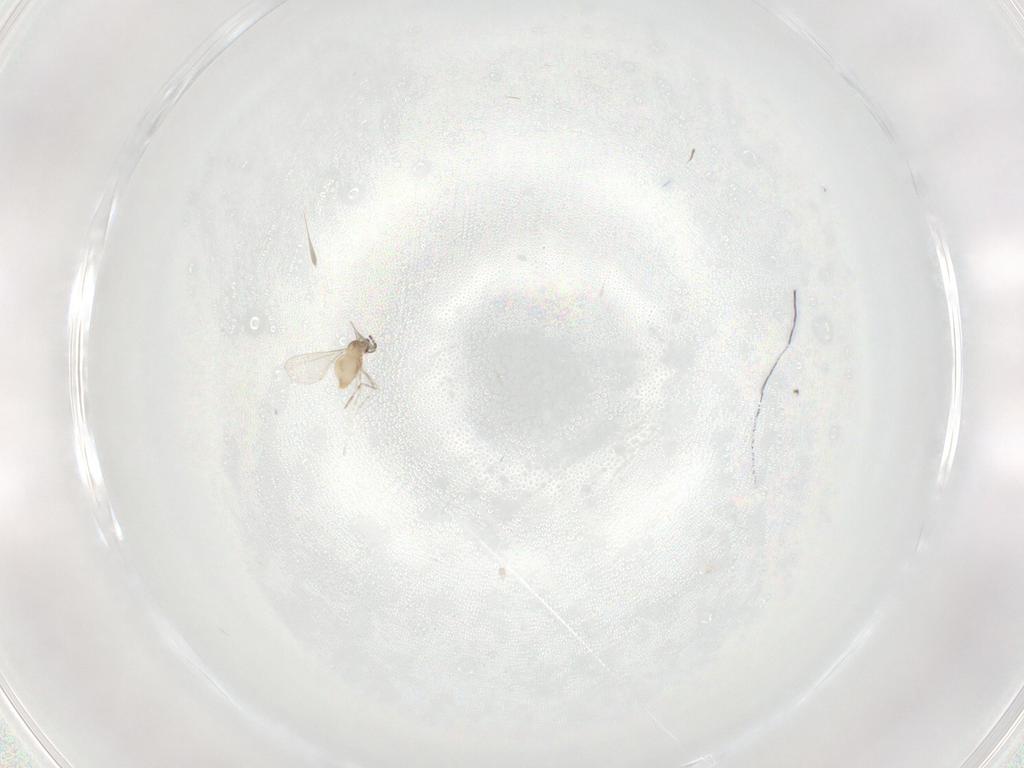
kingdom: Animalia
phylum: Arthropoda
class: Insecta
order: Diptera
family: Cecidomyiidae
